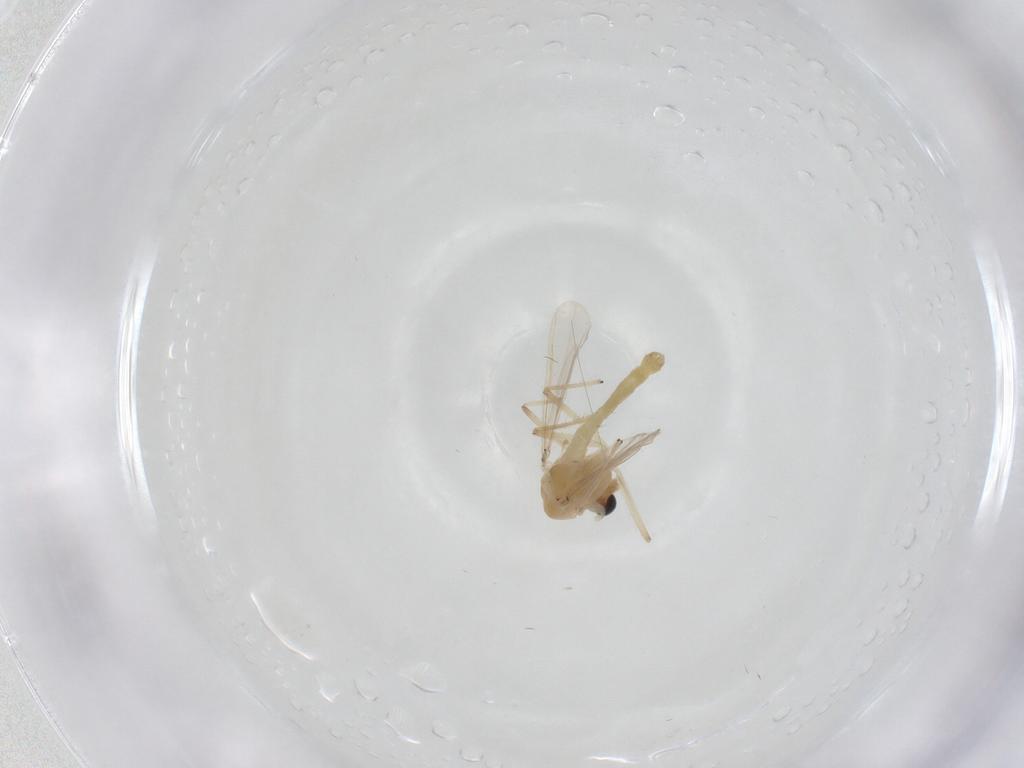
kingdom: Animalia
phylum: Arthropoda
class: Insecta
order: Diptera
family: Chironomidae
